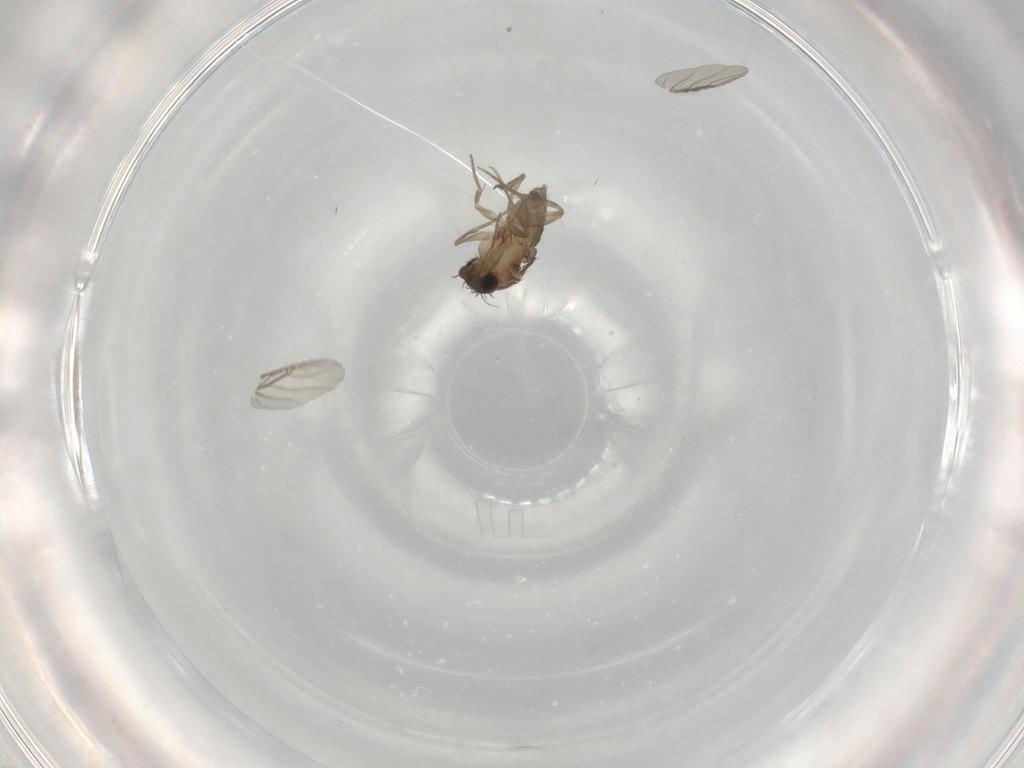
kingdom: Animalia
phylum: Arthropoda
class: Insecta
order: Diptera
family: Phoridae
